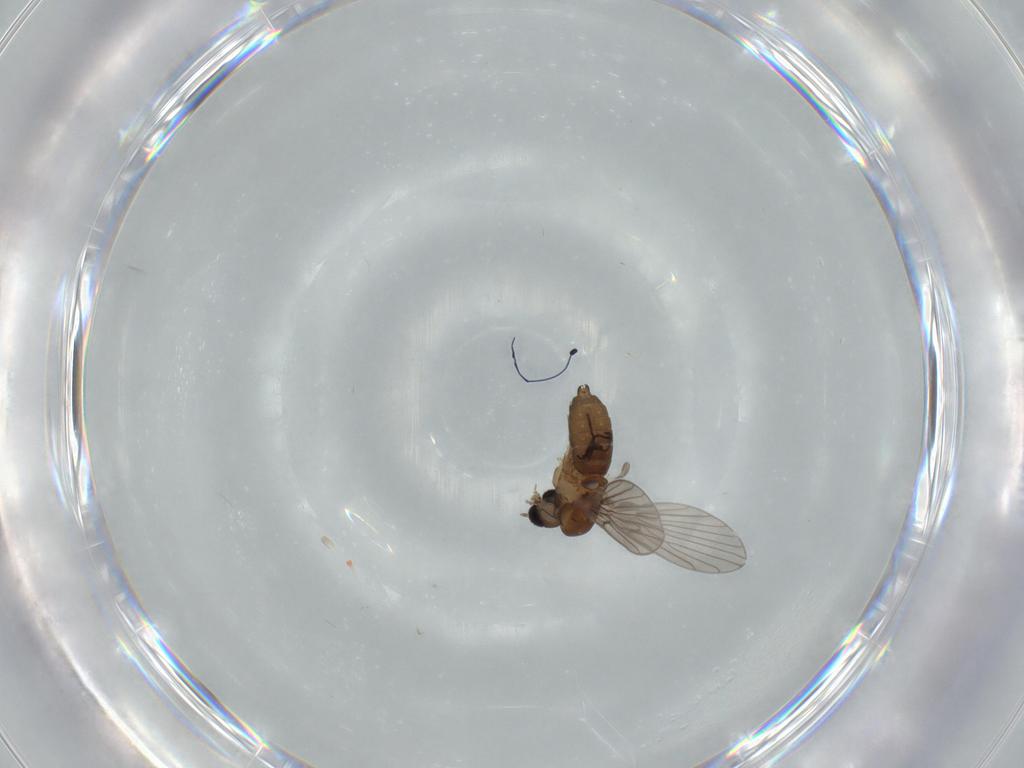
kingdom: Animalia
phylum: Arthropoda
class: Insecta
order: Diptera
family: Psychodidae
